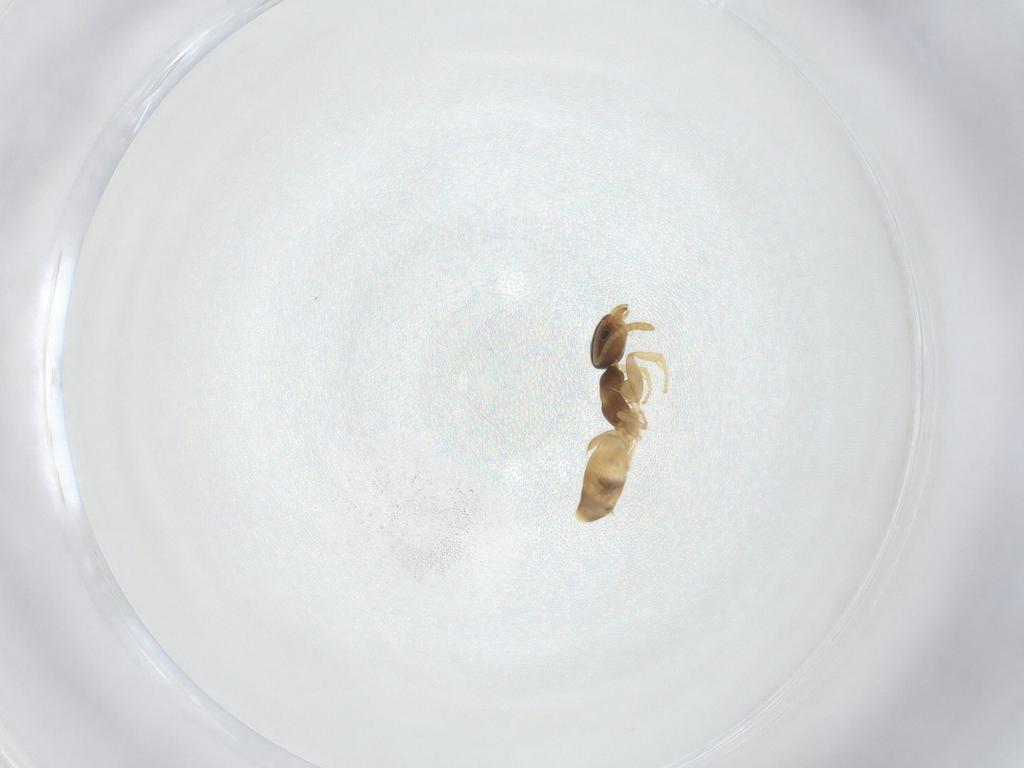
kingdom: Animalia
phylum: Arthropoda
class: Insecta
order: Hymenoptera
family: Formicidae
